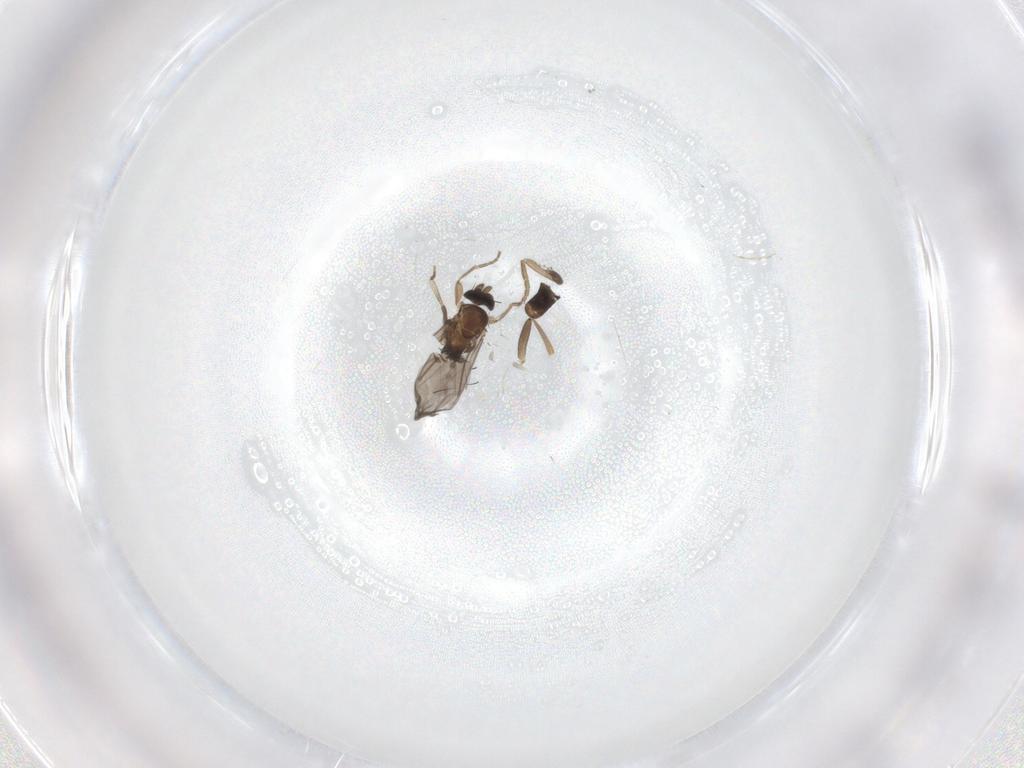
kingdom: Animalia
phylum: Arthropoda
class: Insecta
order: Diptera
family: Cecidomyiidae
